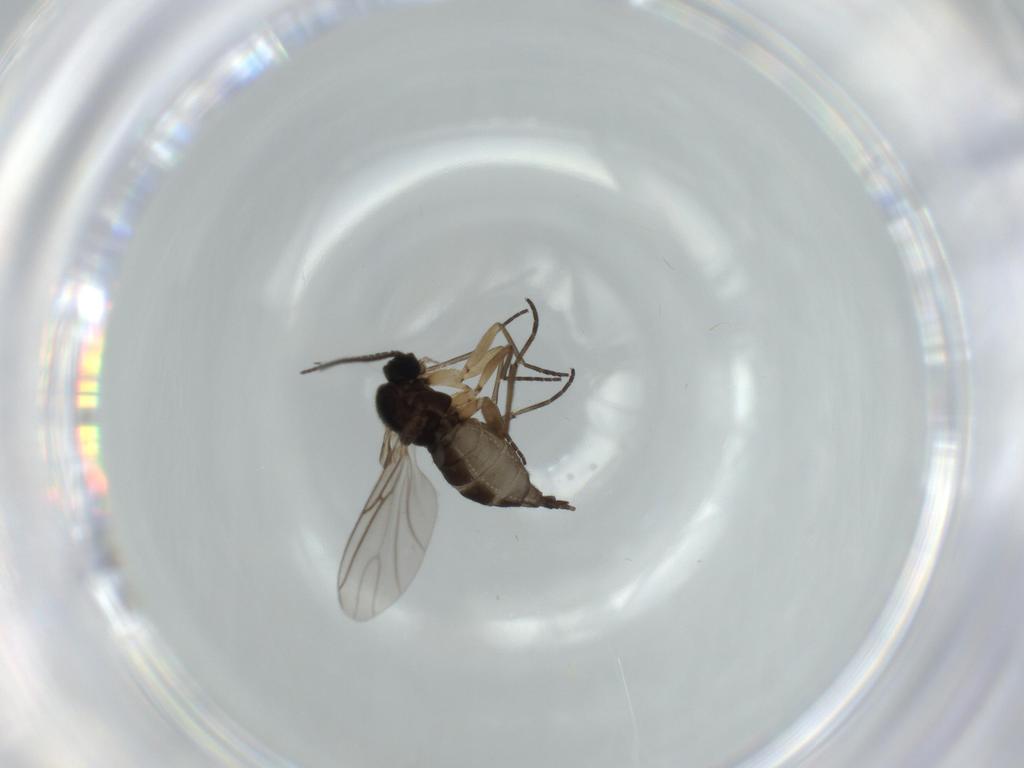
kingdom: Animalia
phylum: Arthropoda
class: Insecta
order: Diptera
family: Sciaridae
